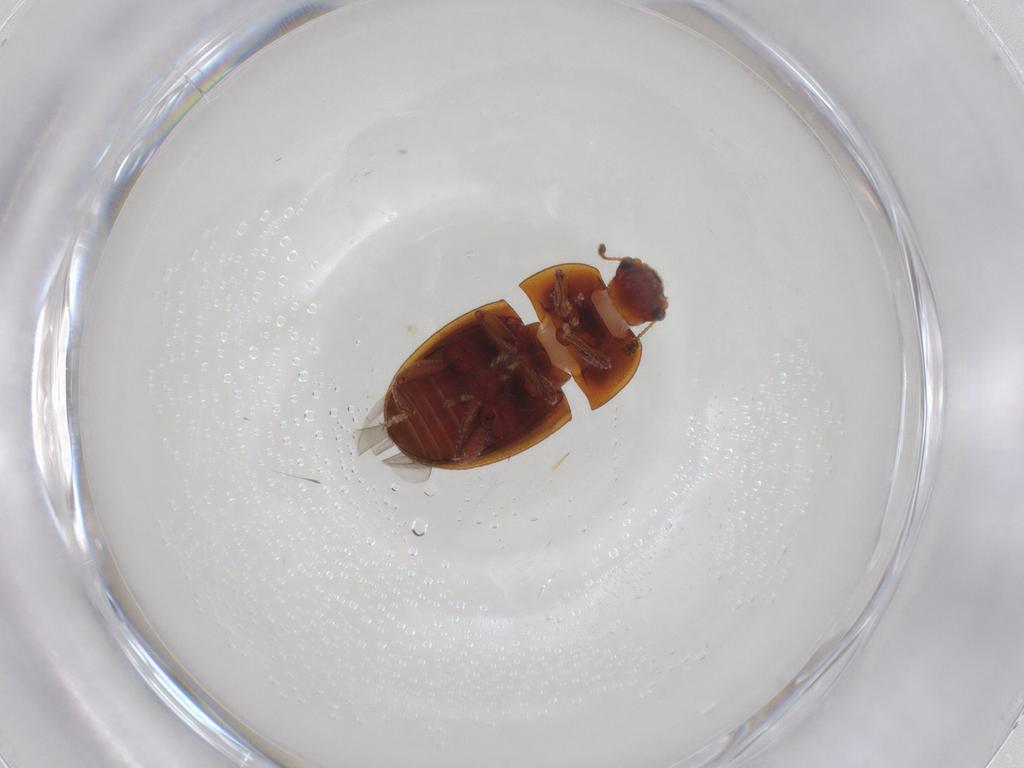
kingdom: Animalia
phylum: Arthropoda
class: Insecta
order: Coleoptera
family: Nitidulidae
